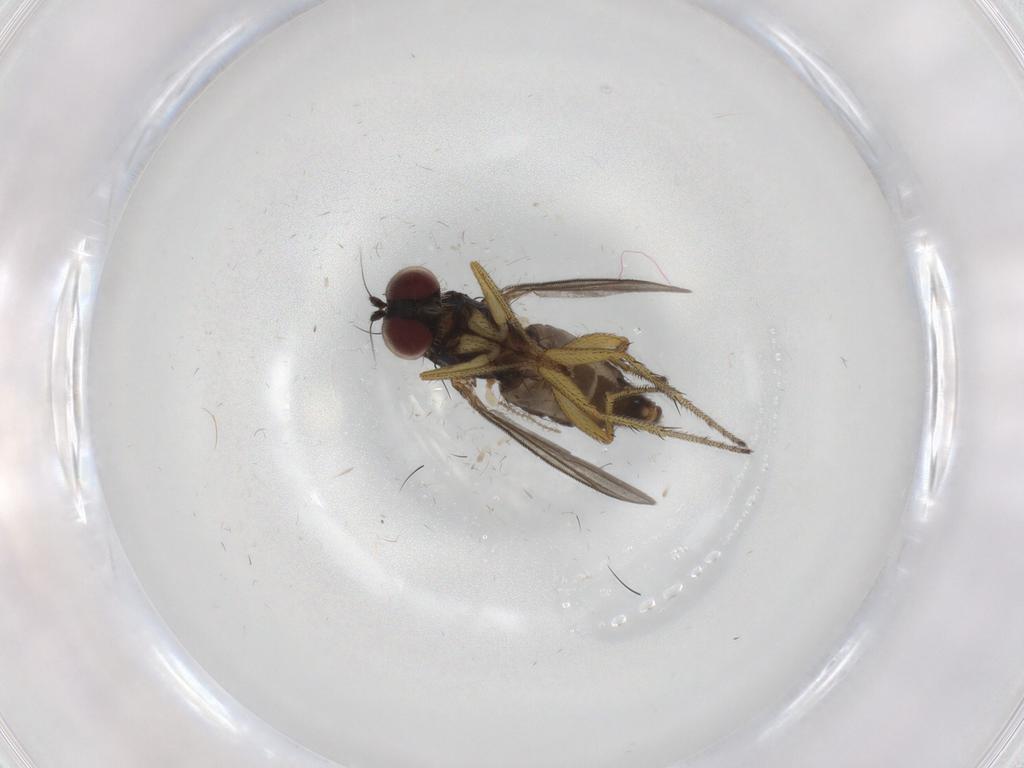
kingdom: Animalia
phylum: Arthropoda
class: Insecta
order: Diptera
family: Dolichopodidae
